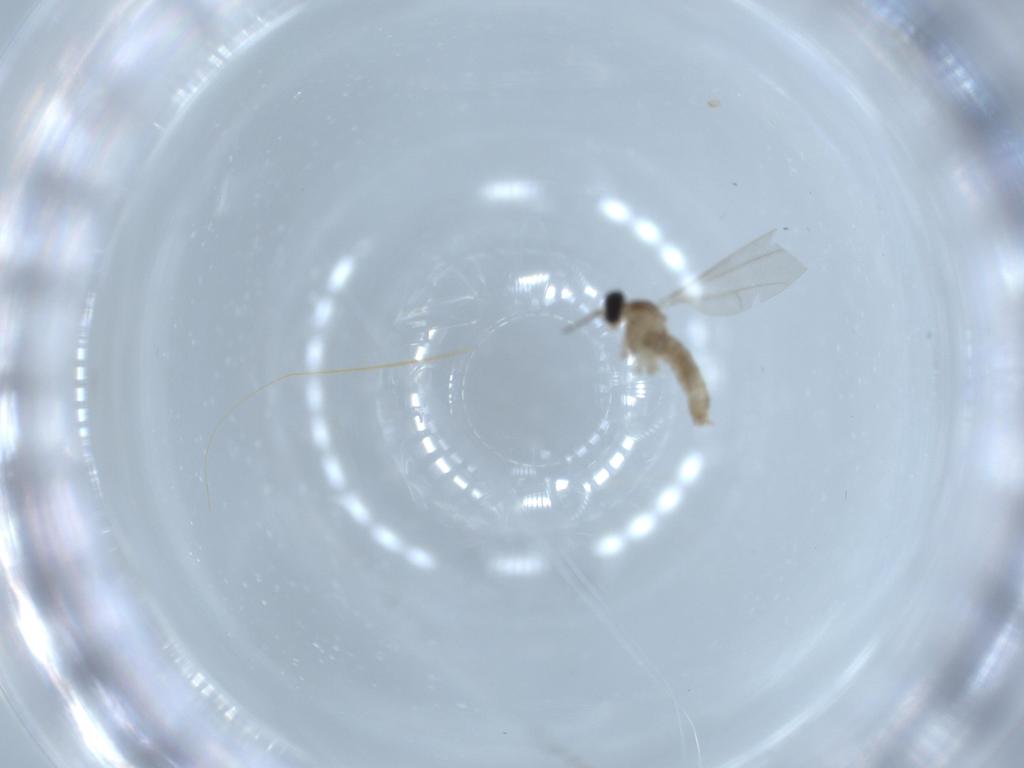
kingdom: Animalia
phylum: Arthropoda
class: Insecta
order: Diptera
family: Cecidomyiidae
